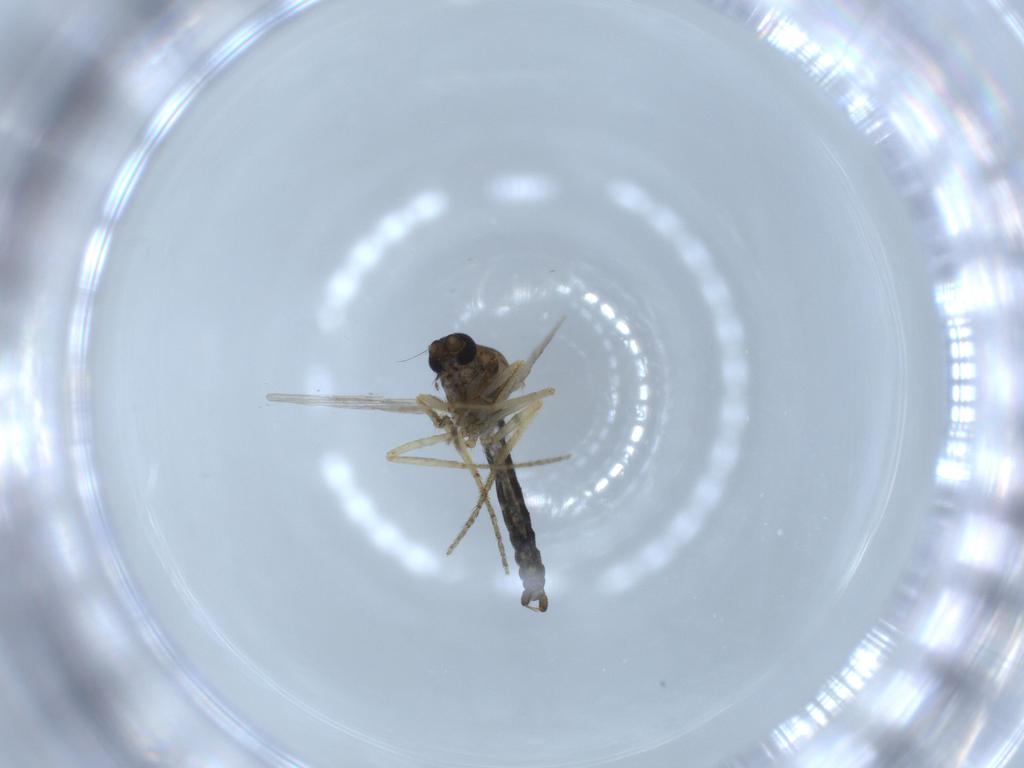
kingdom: Animalia
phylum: Arthropoda
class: Insecta
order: Diptera
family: Ceratopogonidae
